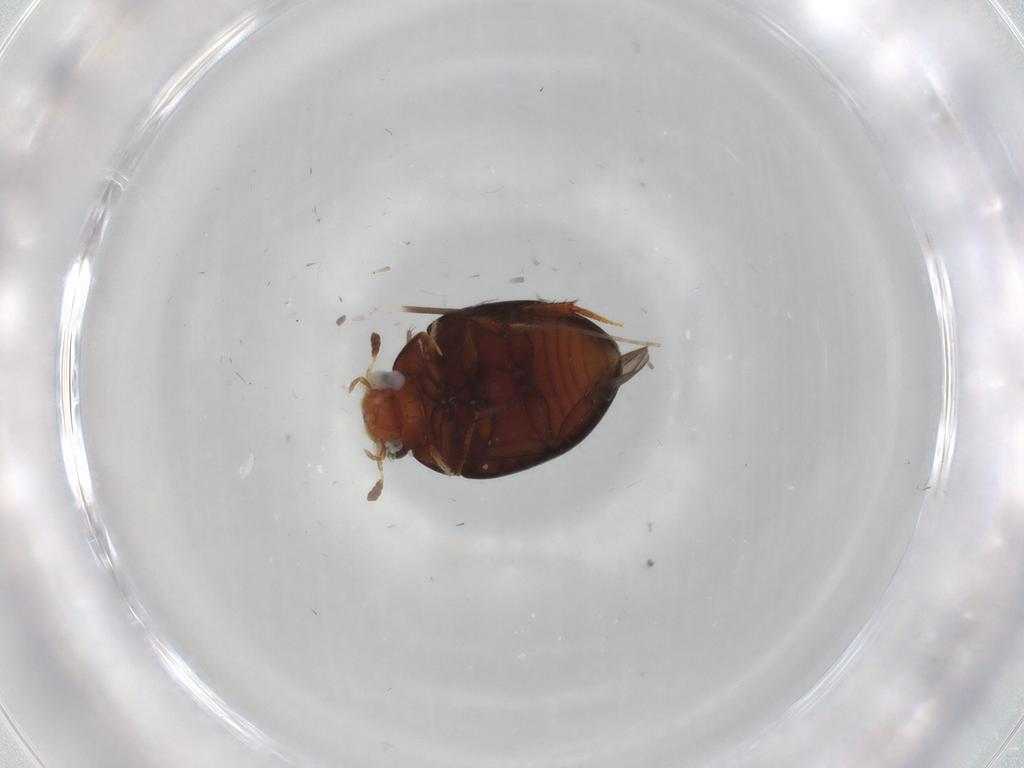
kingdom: Animalia
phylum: Arthropoda
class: Insecta
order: Coleoptera
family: Hydrophilidae
